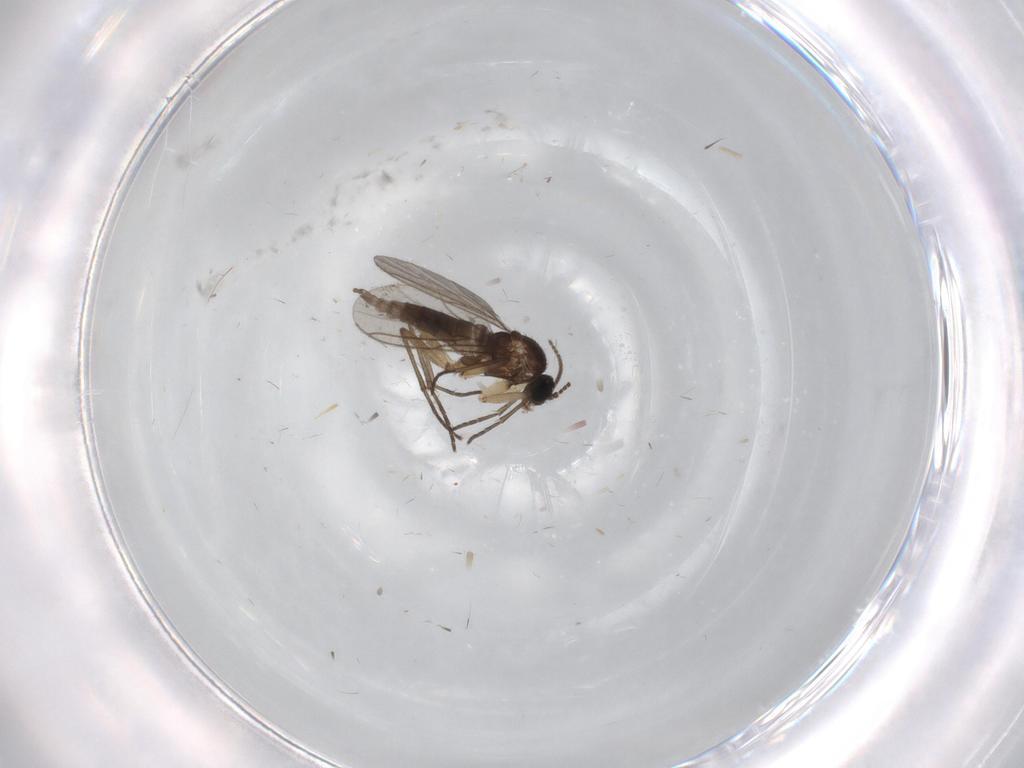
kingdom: Animalia
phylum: Arthropoda
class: Insecta
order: Diptera
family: Sciaridae
